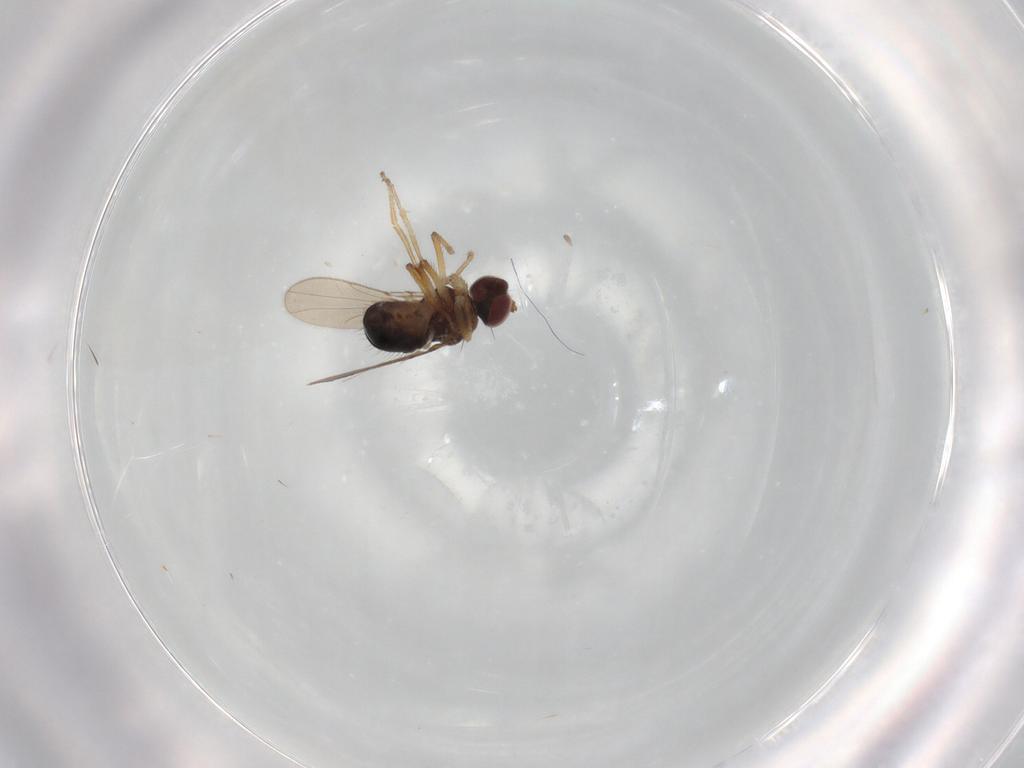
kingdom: Animalia
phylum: Arthropoda
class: Insecta
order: Diptera
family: Ephydridae
